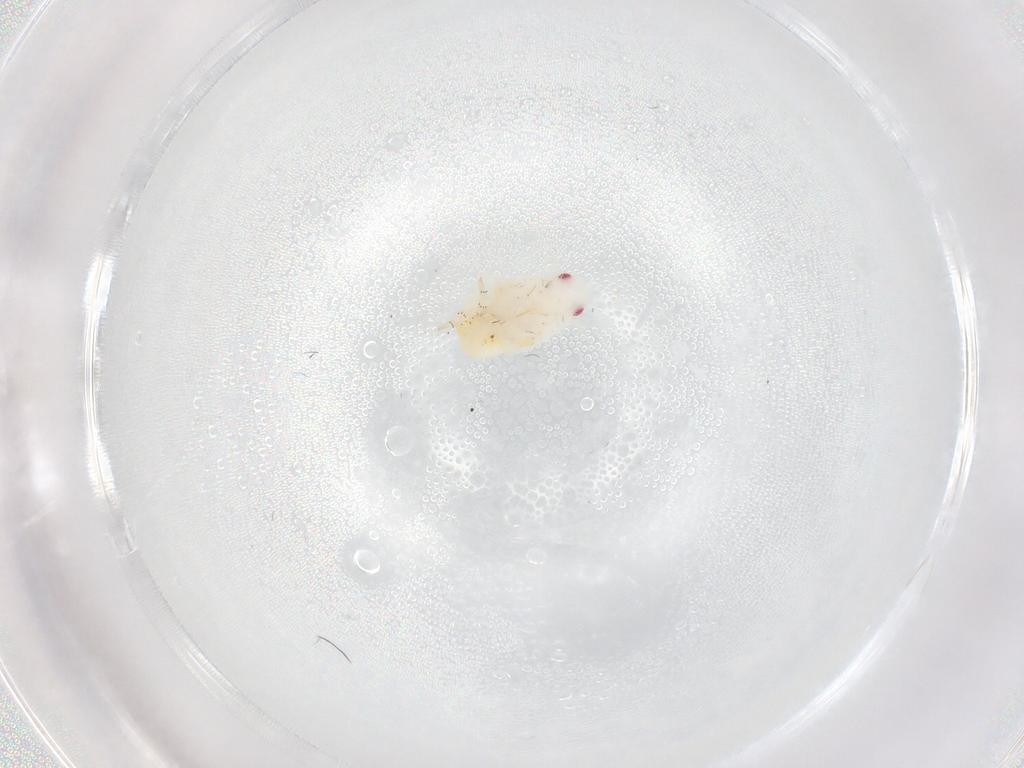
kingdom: Animalia
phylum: Arthropoda
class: Insecta
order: Hemiptera
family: Flatidae
